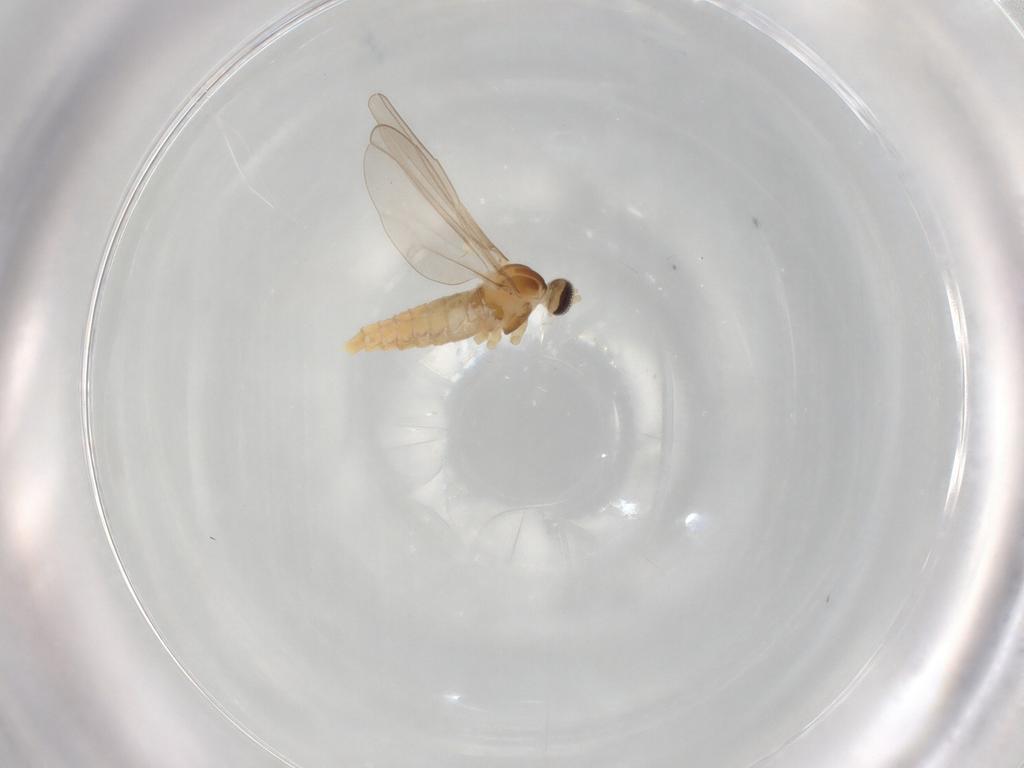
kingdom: Animalia
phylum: Arthropoda
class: Insecta
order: Diptera
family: Cecidomyiidae
